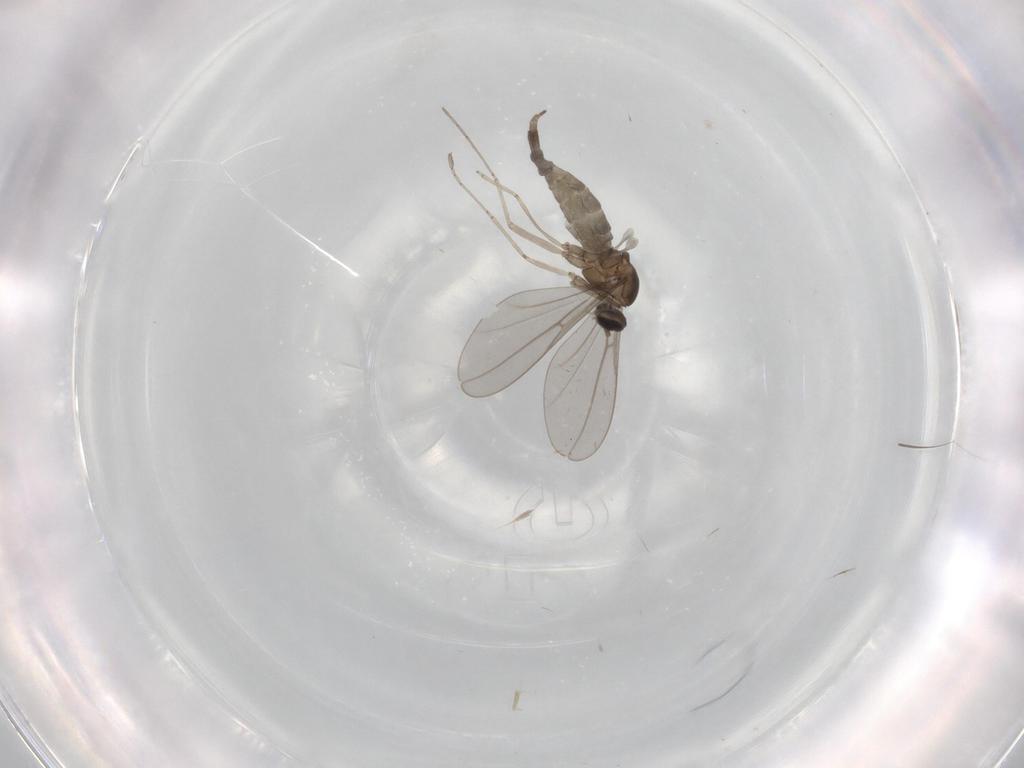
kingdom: Animalia
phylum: Arthropoda
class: Insecta
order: Diptera
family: Cecidomyiidae
